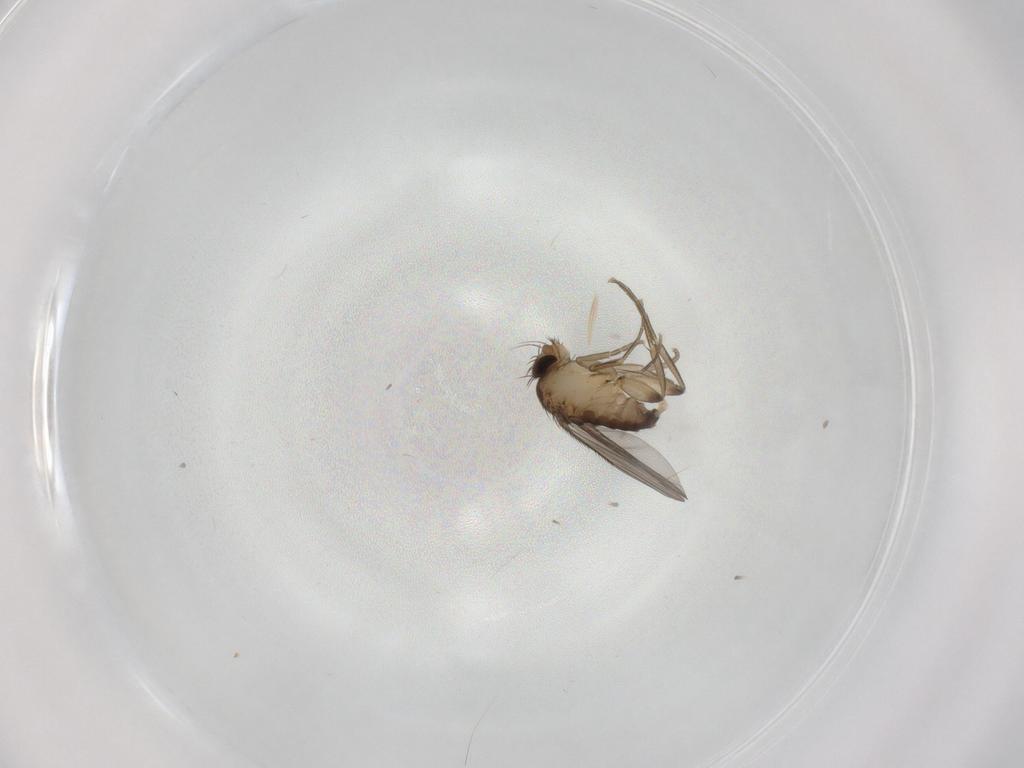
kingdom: Animalia
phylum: Arthropoda
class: Insecta
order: Diptera
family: Phoridae
